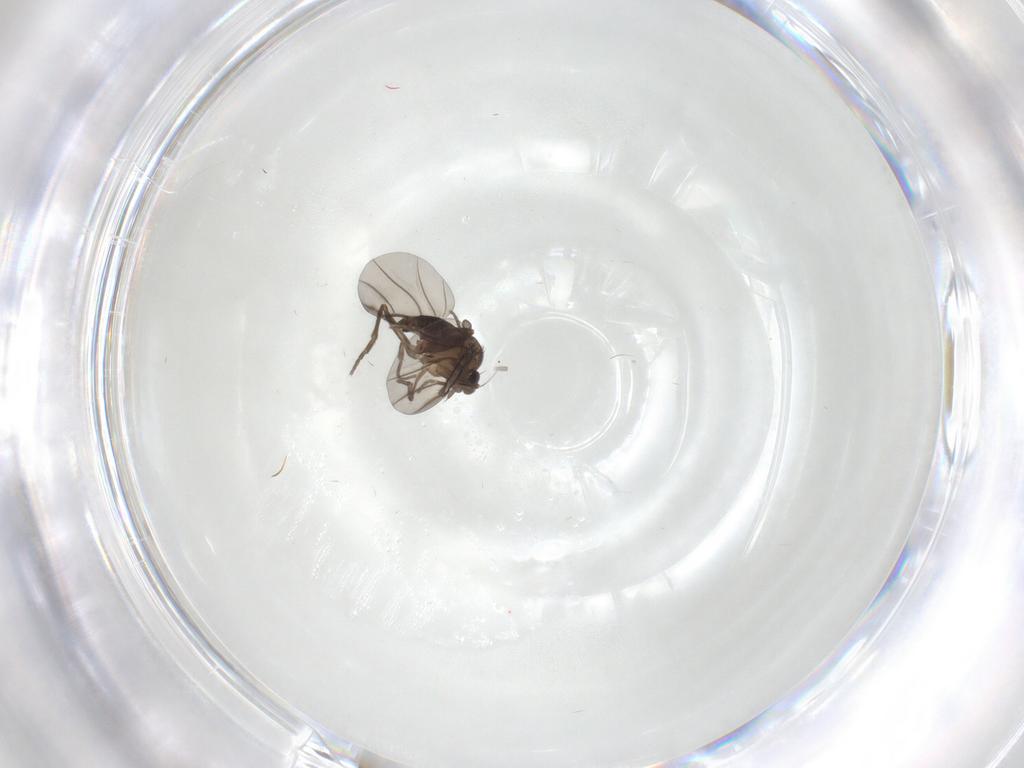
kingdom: Animalia
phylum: Arthropoda
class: Insecta
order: Diptera
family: Phoridae
